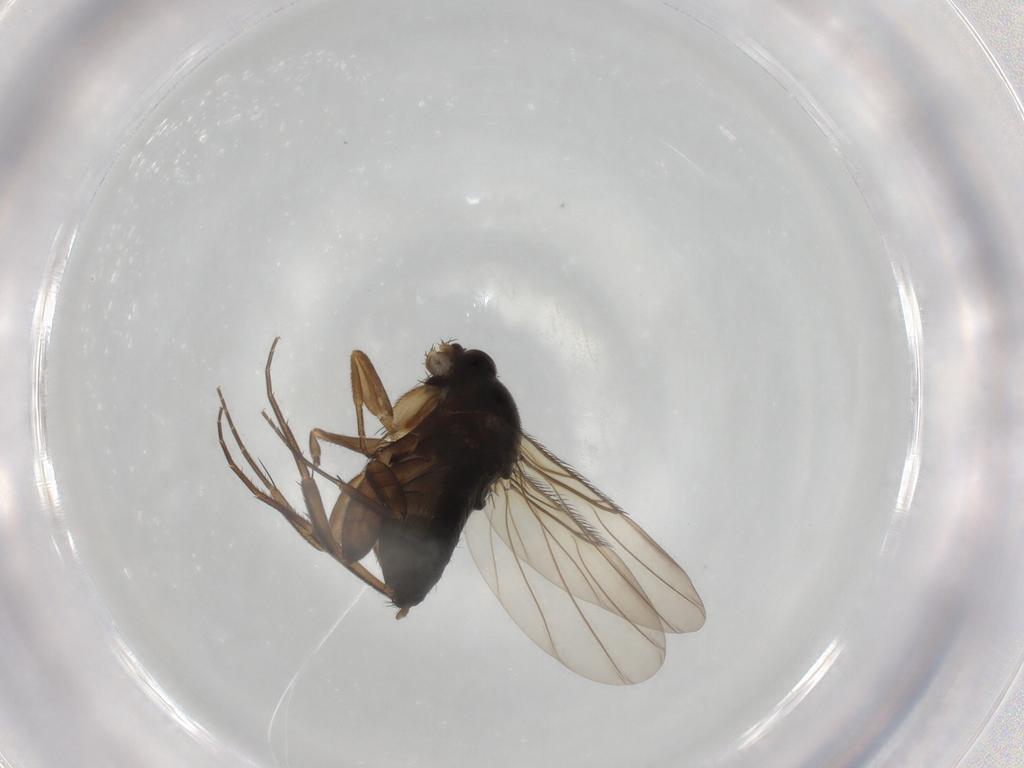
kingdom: Animalia
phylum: Arthropoda
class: Insecta
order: Diptera
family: Phoridae
